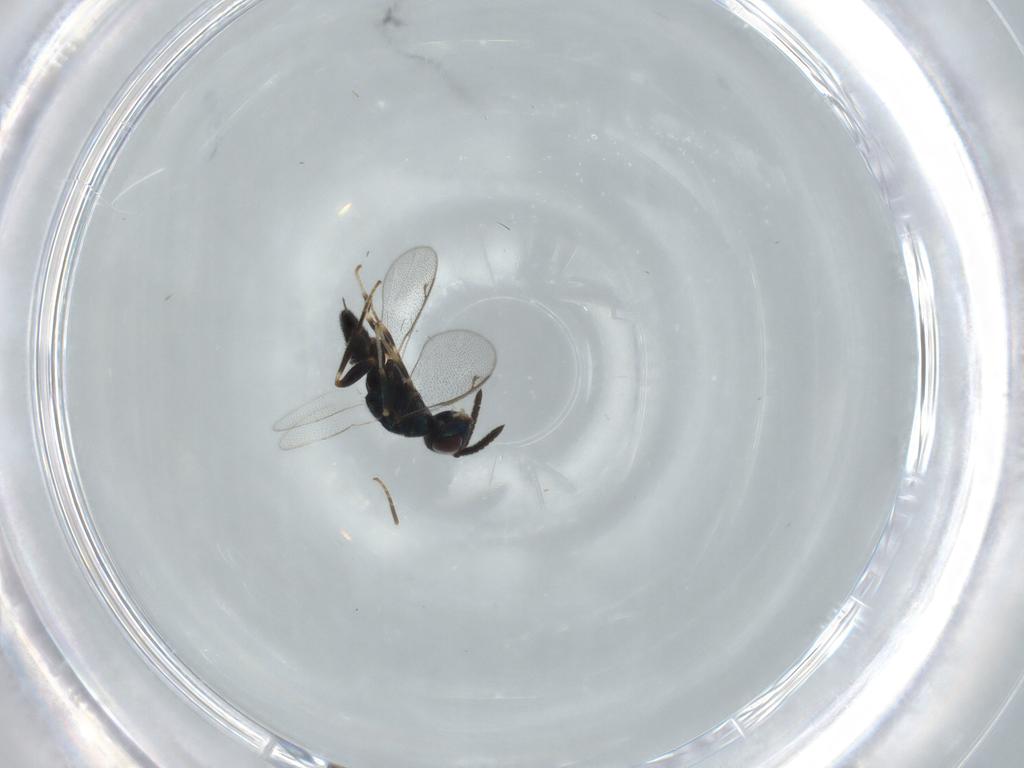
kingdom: Animalia
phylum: Arthropoda
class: Insecta
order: Hymenoptera
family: Cleonyminae
